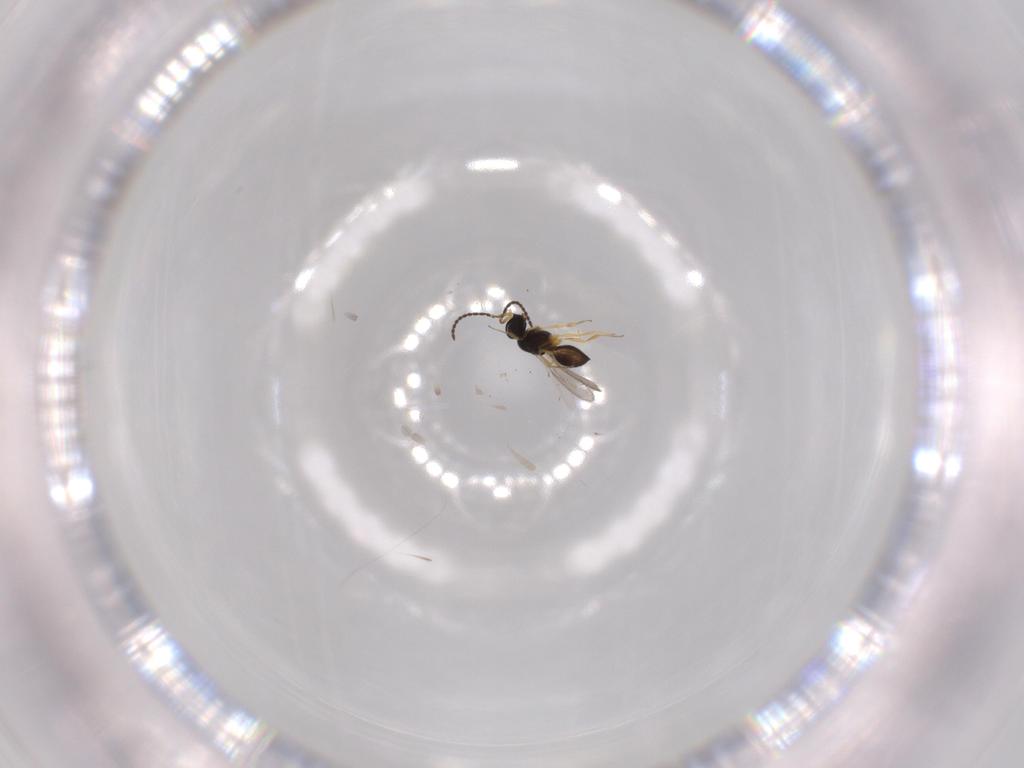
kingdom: Animalia
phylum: Arthropoda
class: Insecta
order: Hymenoptera
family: Scelionidae
